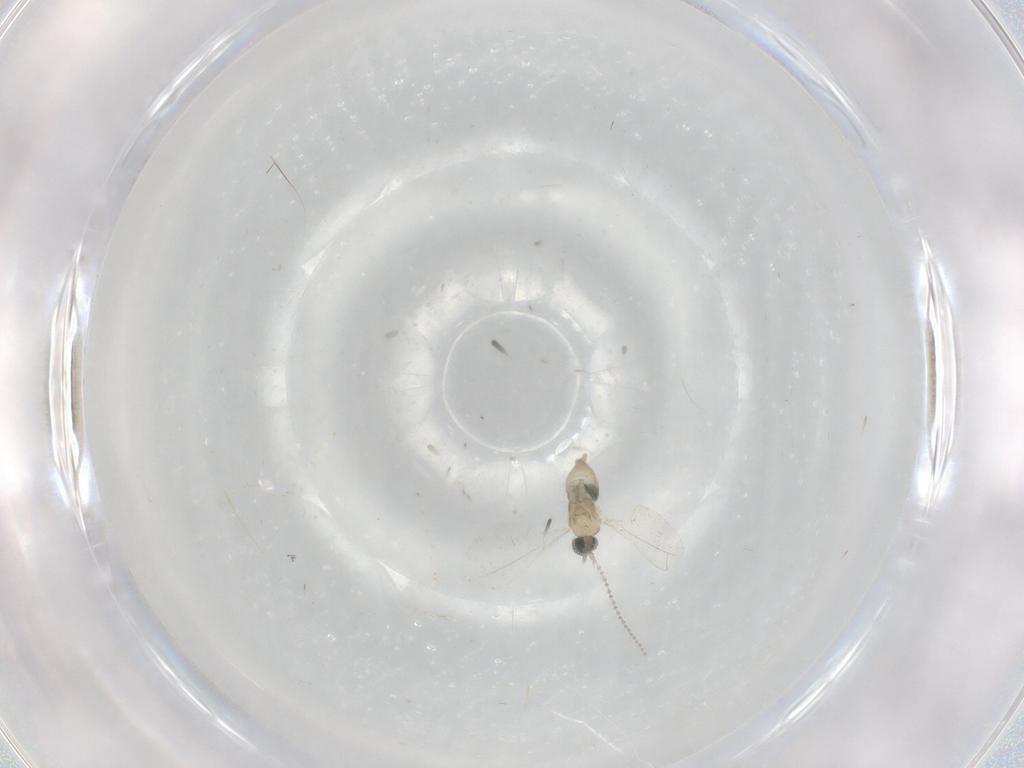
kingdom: Animalia
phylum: Arthropoda
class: Insecta
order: Diptera
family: Cecidomyiidae
